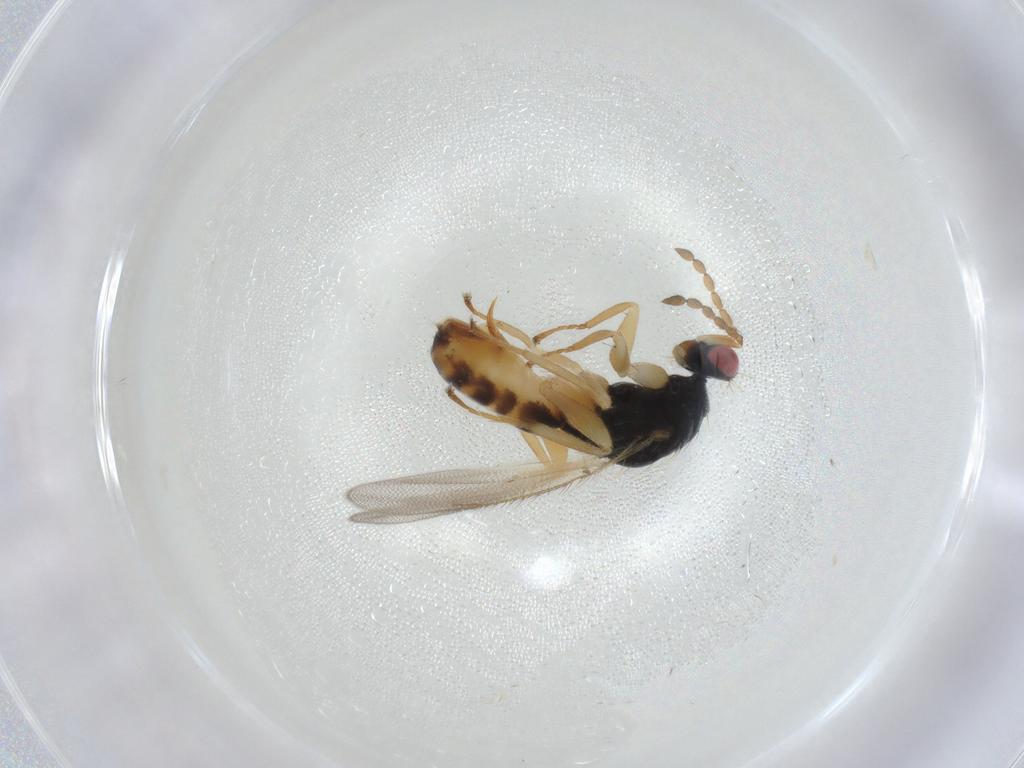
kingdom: Animalia
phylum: Arthropoda
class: Insecta
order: Hymenoptera
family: Eulophidae
